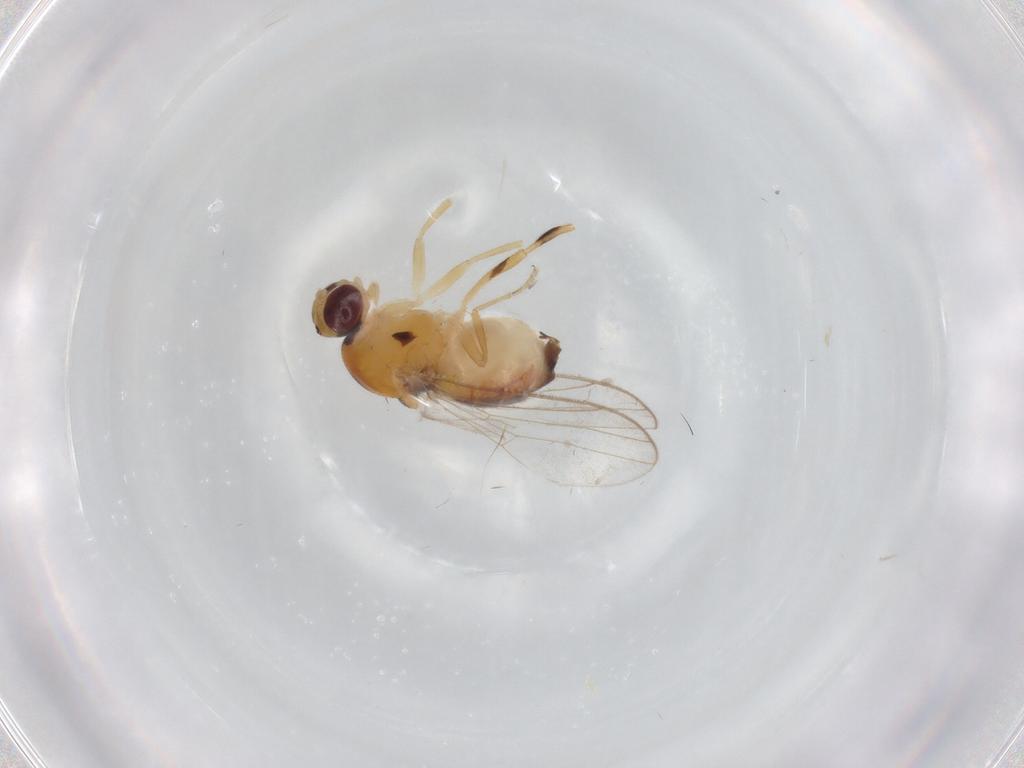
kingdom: Animalia
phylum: Arthropoda
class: Insecta
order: Diptera
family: Chloropidae
